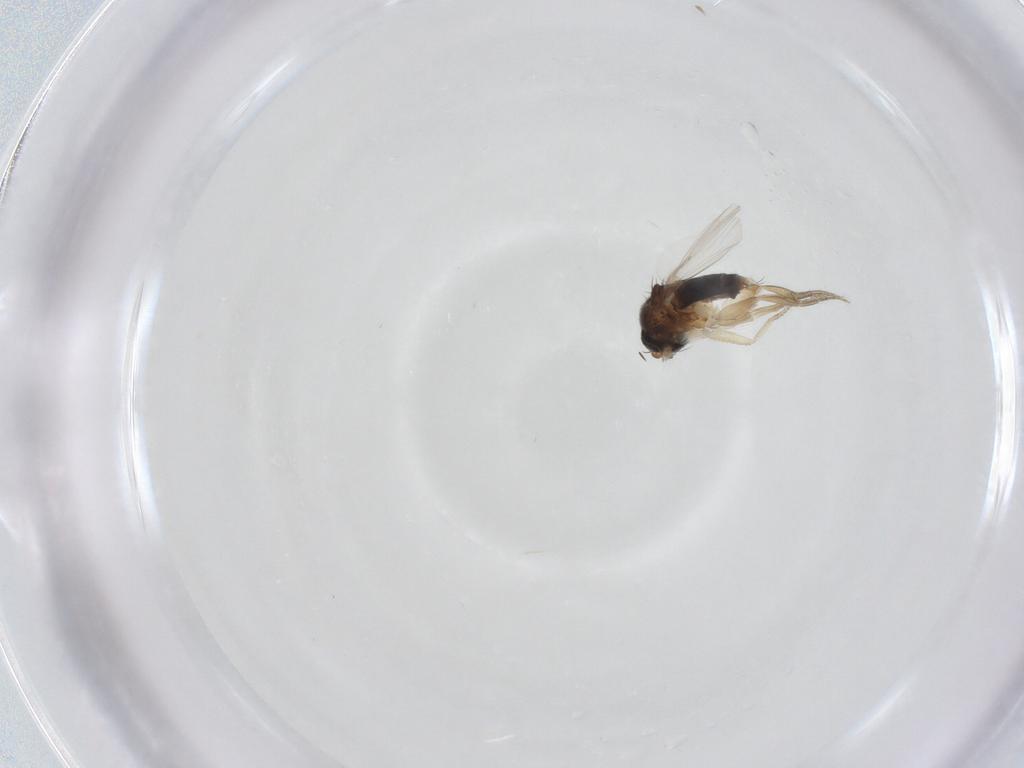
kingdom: Animalia
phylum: Arthropoda
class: Insecta
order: Diptera
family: Phoridae
